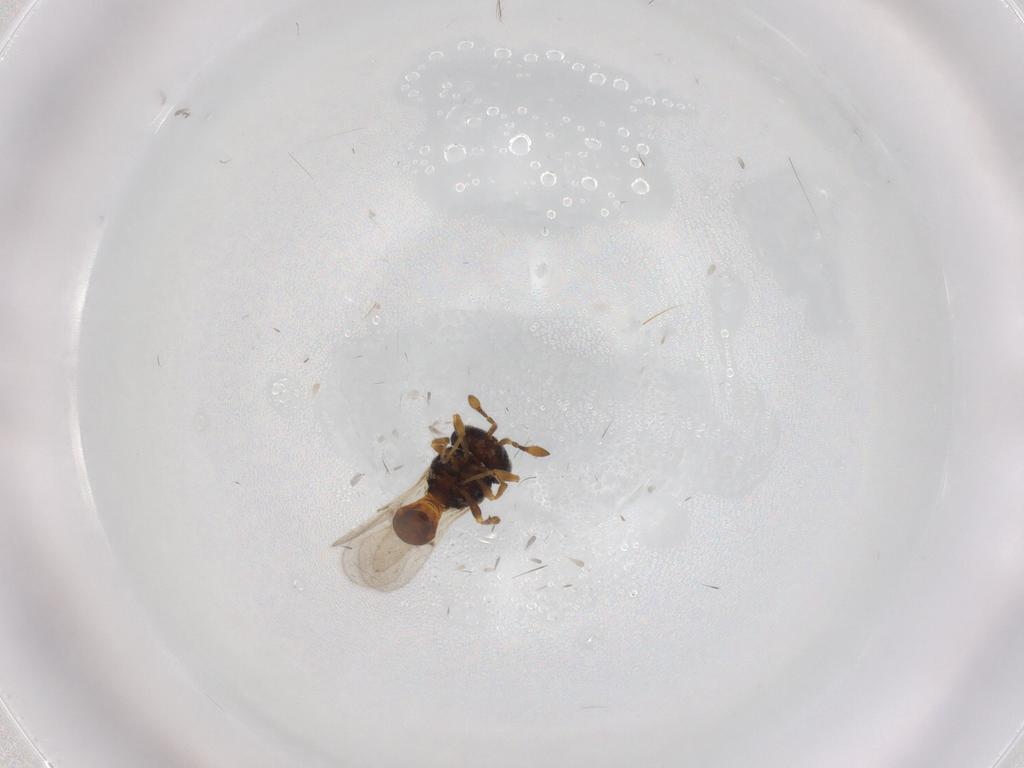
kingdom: Animalia
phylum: Arthropoda
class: Insecta
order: Hymenoptera
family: Scelionidae
